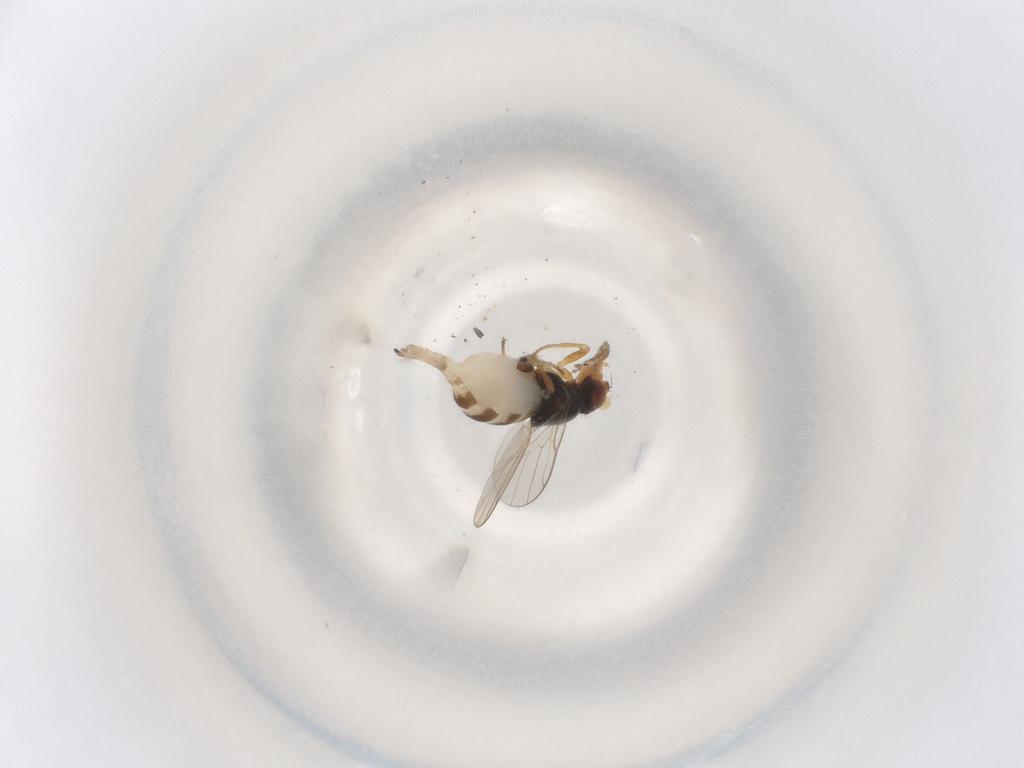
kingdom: Animalia
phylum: Arthropoda
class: Insecta
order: Diptera
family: Chloropidae
